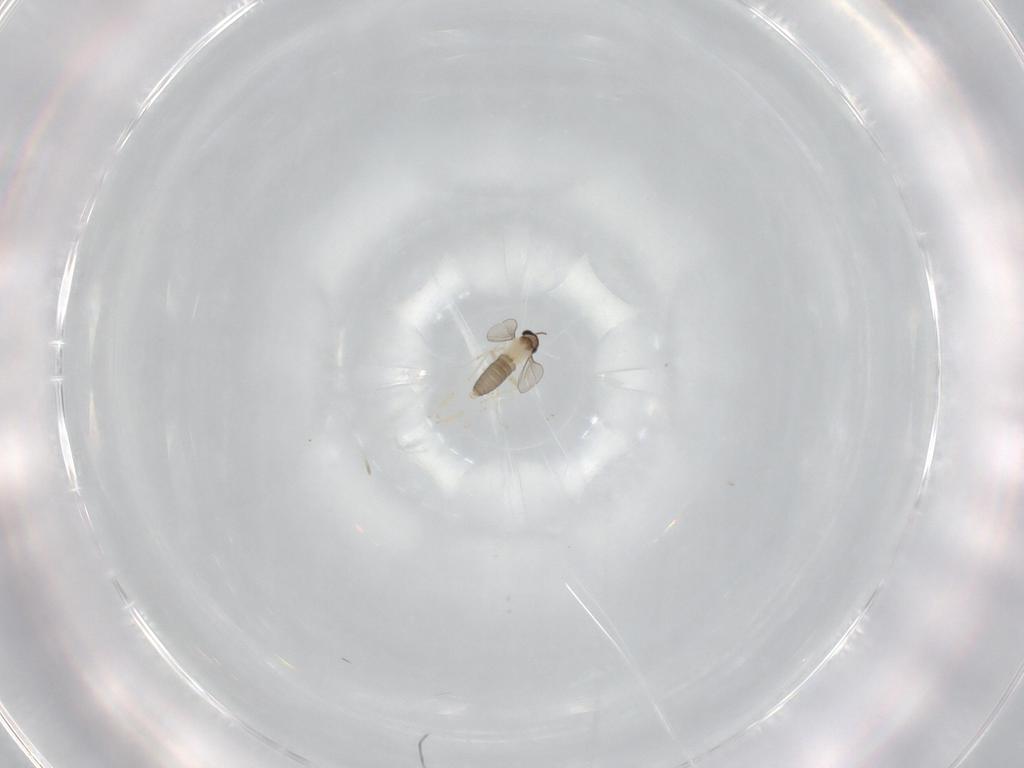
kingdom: Animalia
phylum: Arthropoda
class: Insecta
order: Diptera
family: Cecidomyiidae
